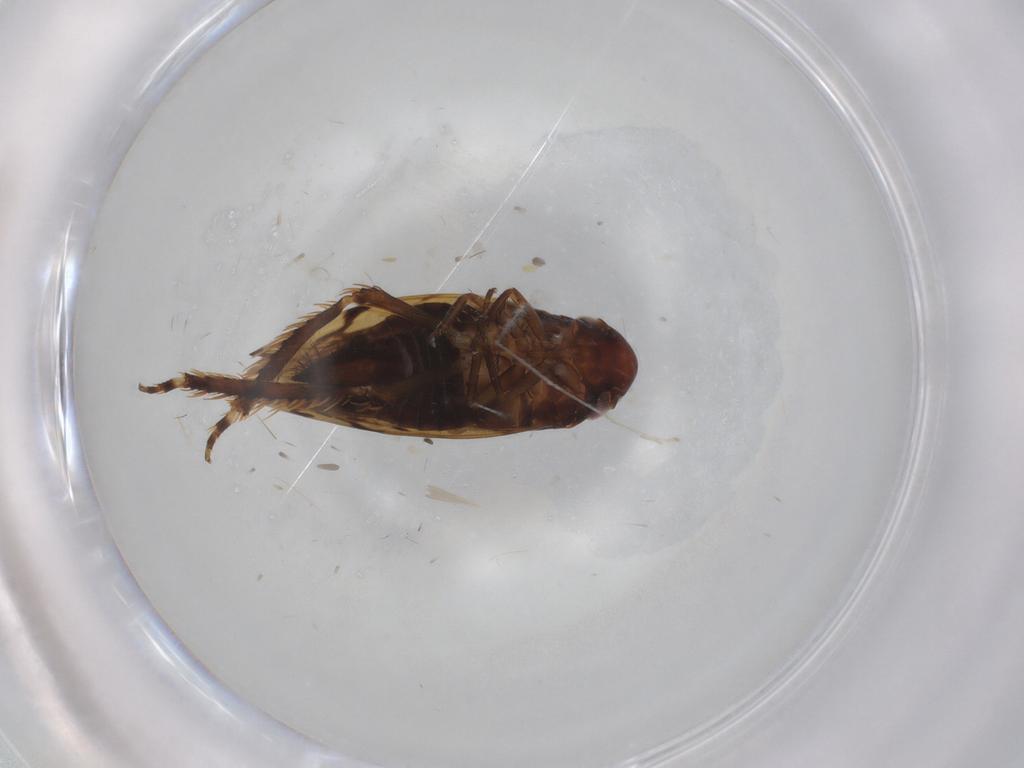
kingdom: Animalia
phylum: Arthropoda
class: Insecta
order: Hemiptera
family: Cicadellidae
